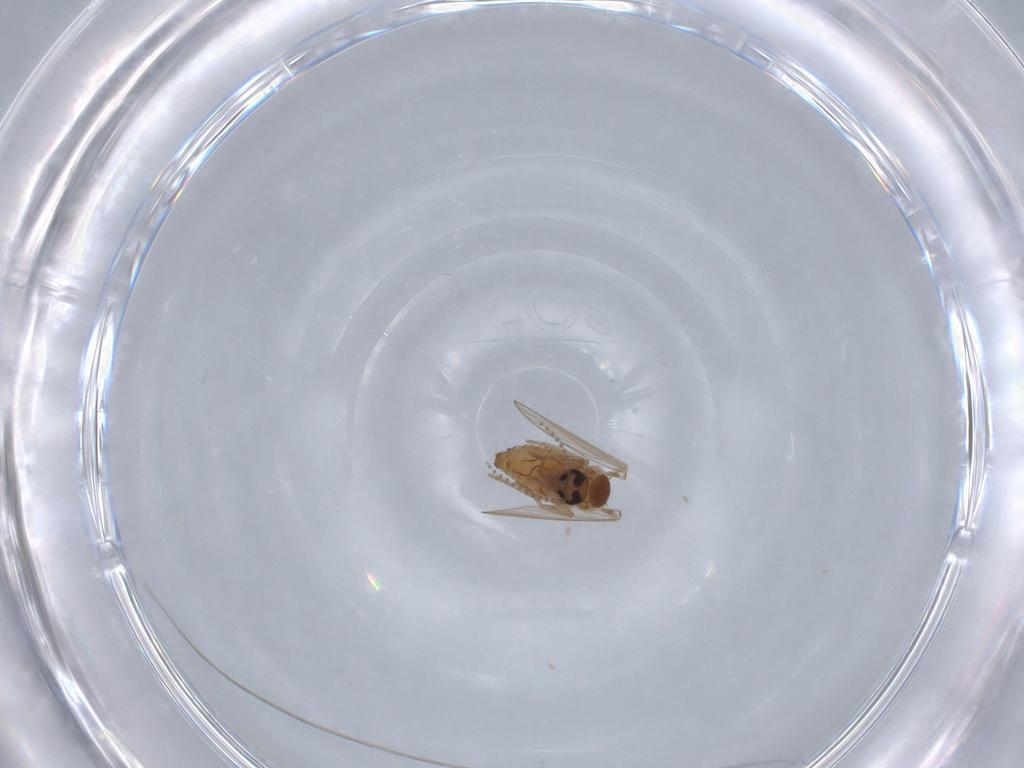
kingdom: Animalia
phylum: Arthropoda
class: Insecta
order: Diptera
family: Psychodidae
